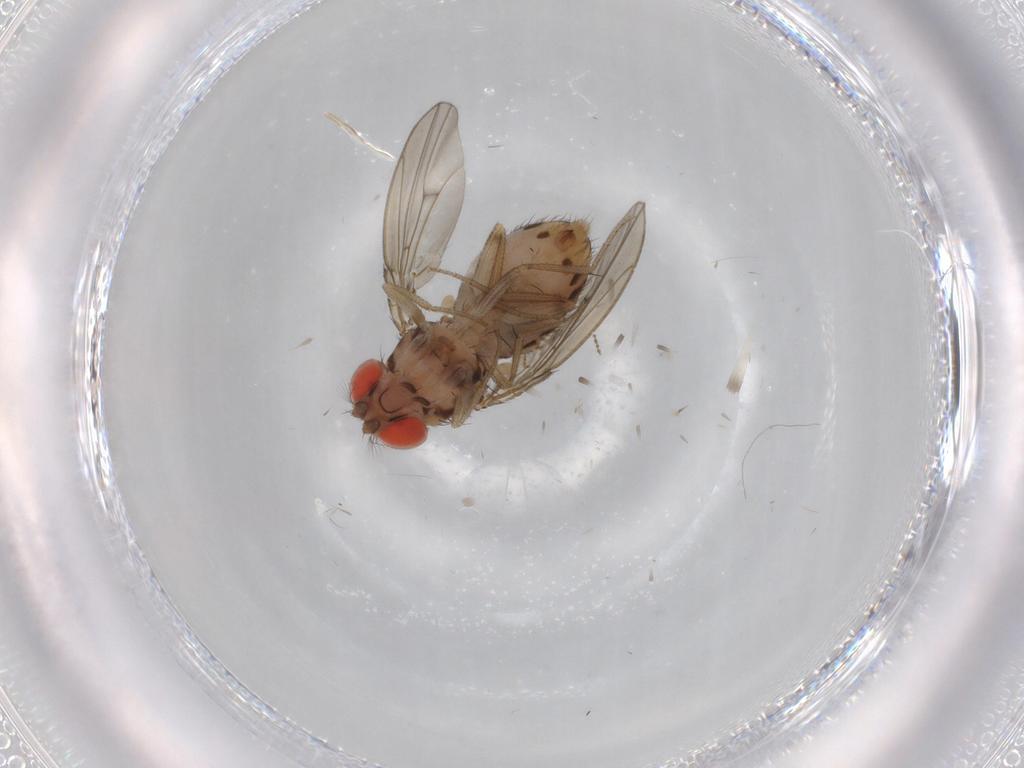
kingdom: Animalia
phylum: Arthropoda
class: Insecta
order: Diptera
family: Drosophilidae
